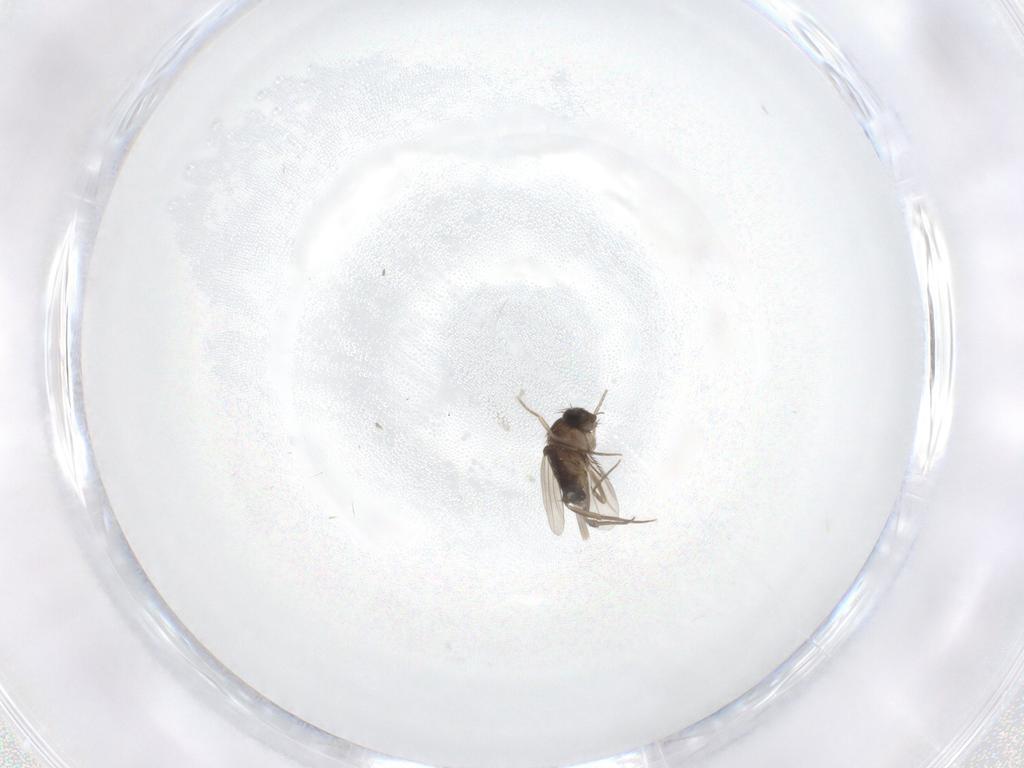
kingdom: Animalia
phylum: Arthropoda
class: Insecta
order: Diptera
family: Phoridae
